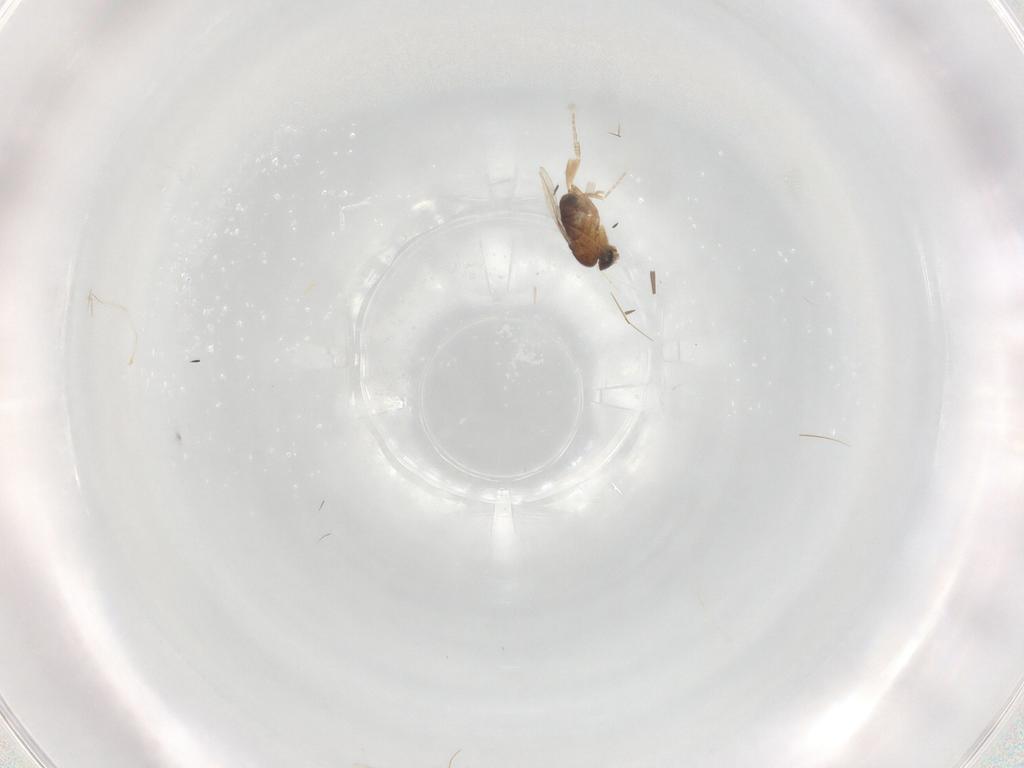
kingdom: Animalia
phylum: Arthropoda
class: Insecta
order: Diptera
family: Phoridae
